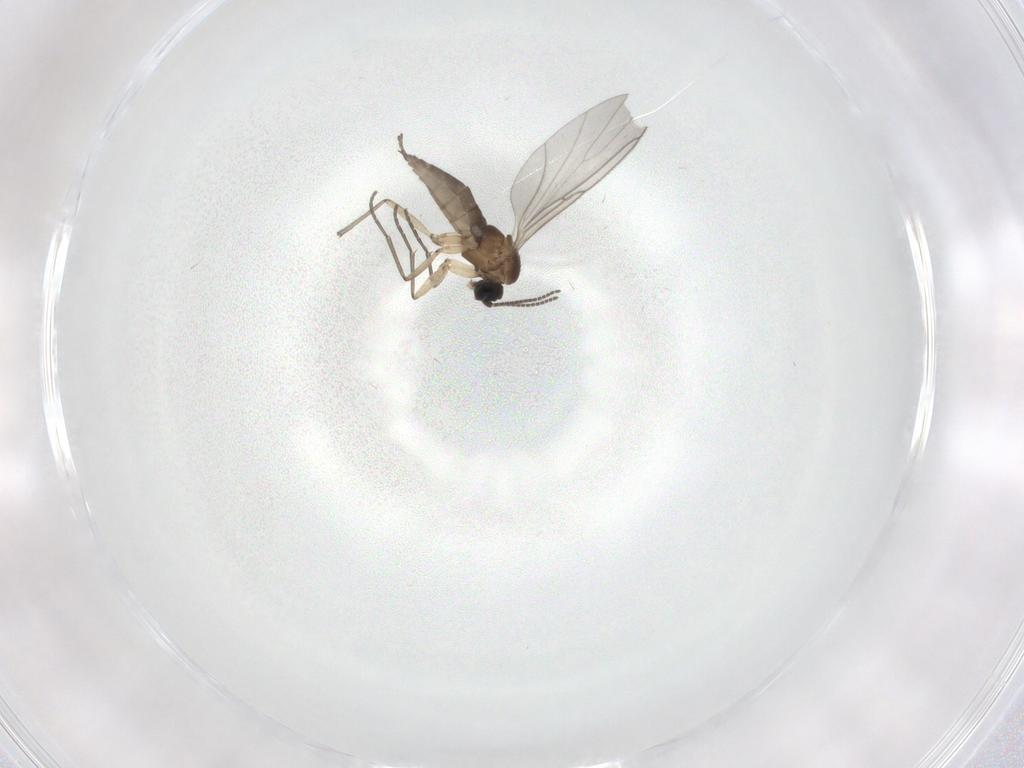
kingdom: Animalia
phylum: Arthropoda
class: Insecta
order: Diptera
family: Sciaridae
